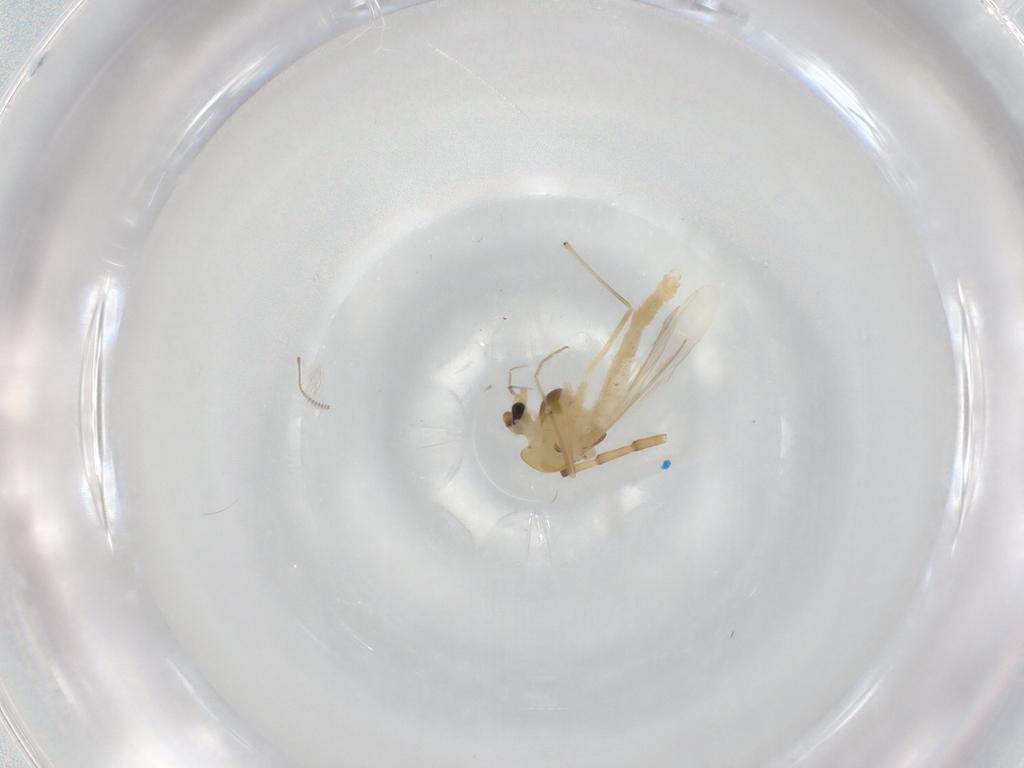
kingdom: Animalia
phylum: Arthropoda
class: Insecta
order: Diptera
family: Chironomidae
